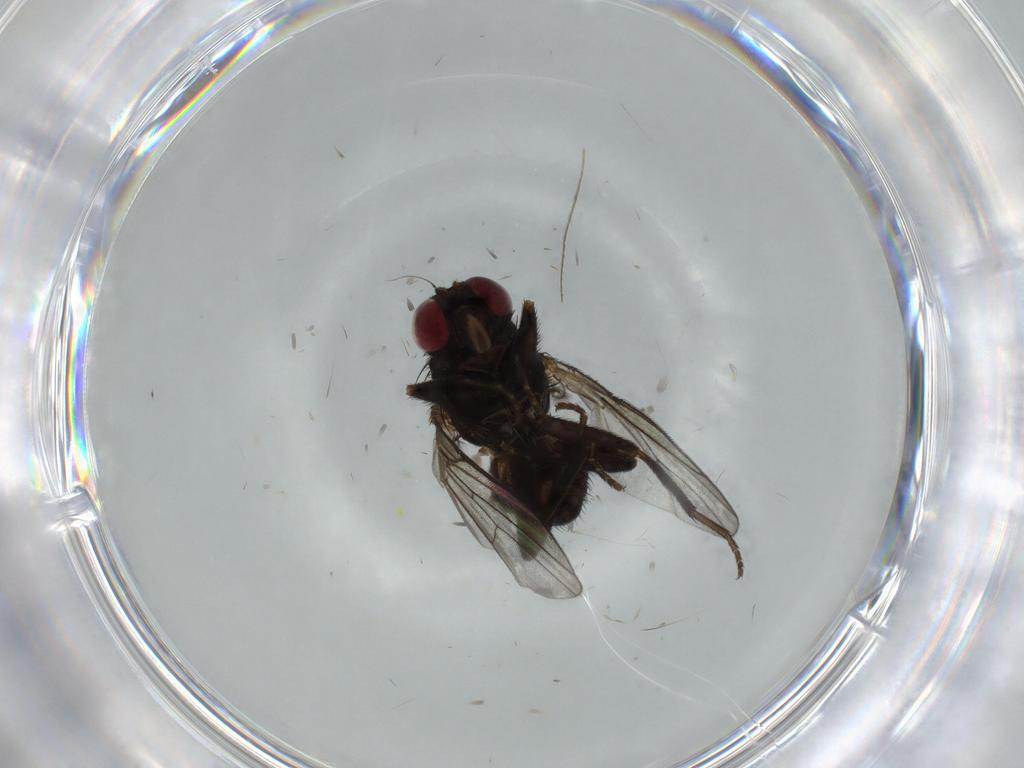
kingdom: Animalia
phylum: Arthropoda
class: Insecta
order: Diptera
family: Agromyzidae
